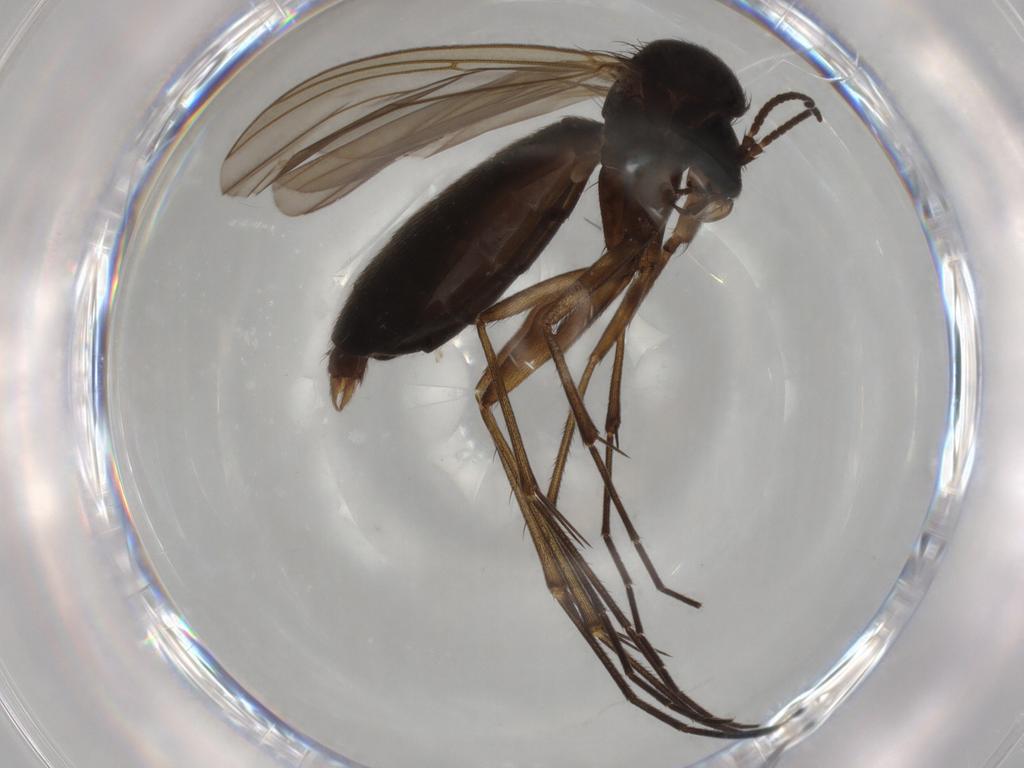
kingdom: Animalia
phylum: Arthropoda
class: Insecta
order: Diptera
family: Mycetophilidae
